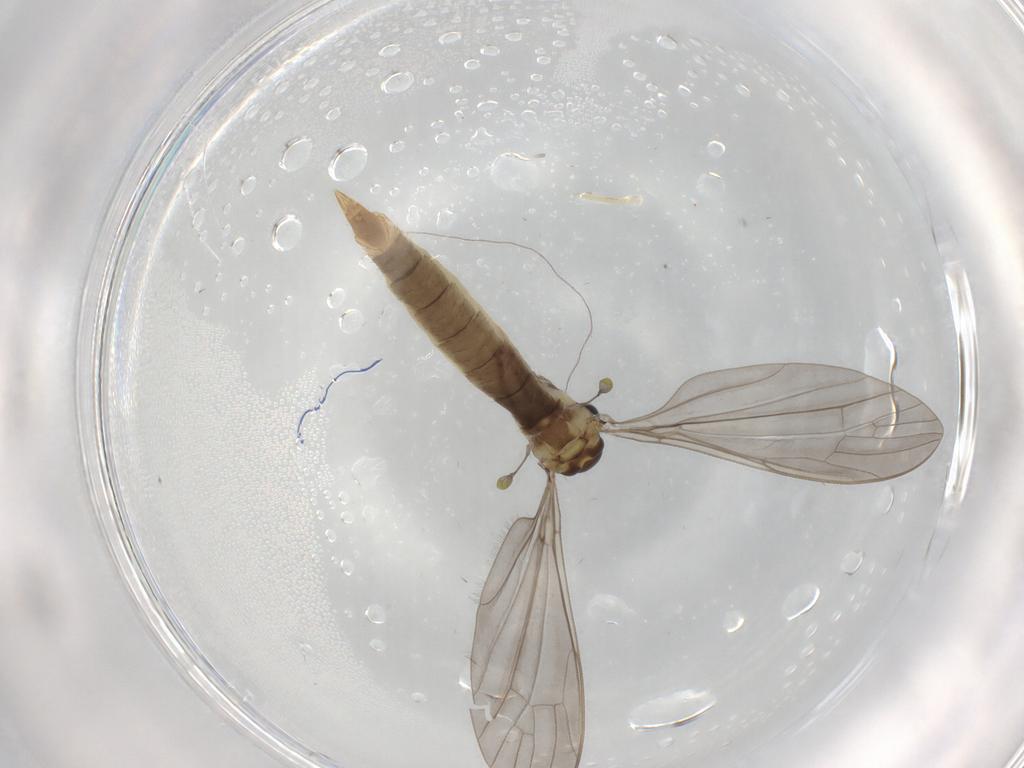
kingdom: Animalia
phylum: Arthropoda
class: Insecta
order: Diptera
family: Limoniidae
